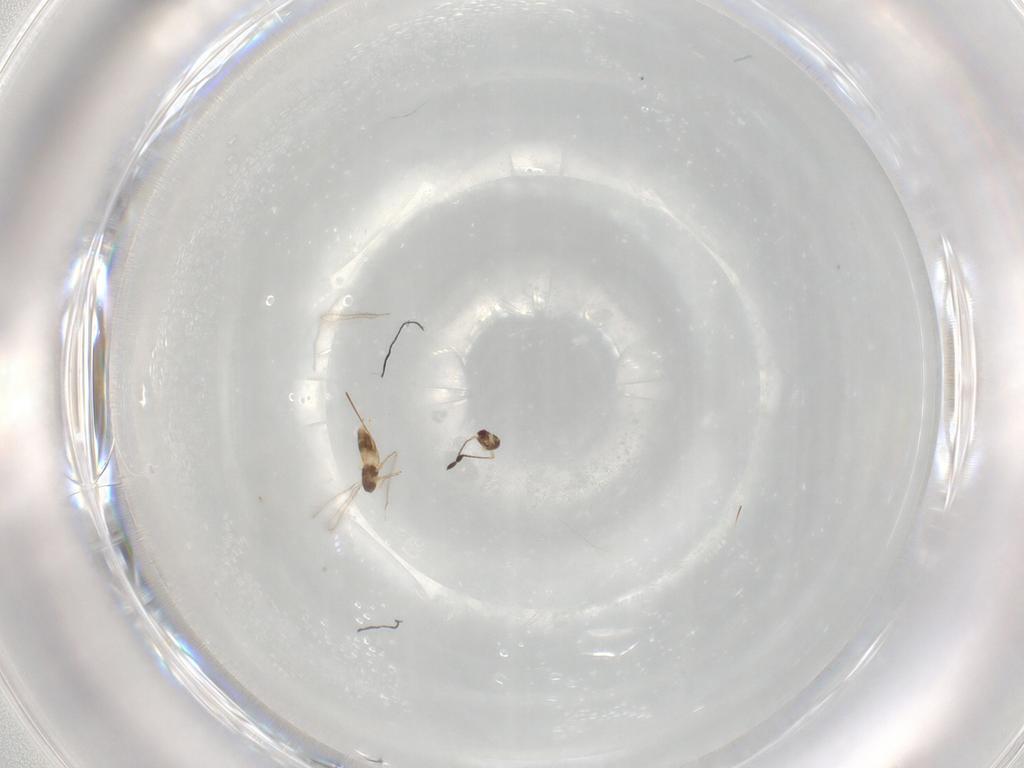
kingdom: Animalia
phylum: Arthropoda
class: Insecta
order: Hymenoptera
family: Mymaridae
